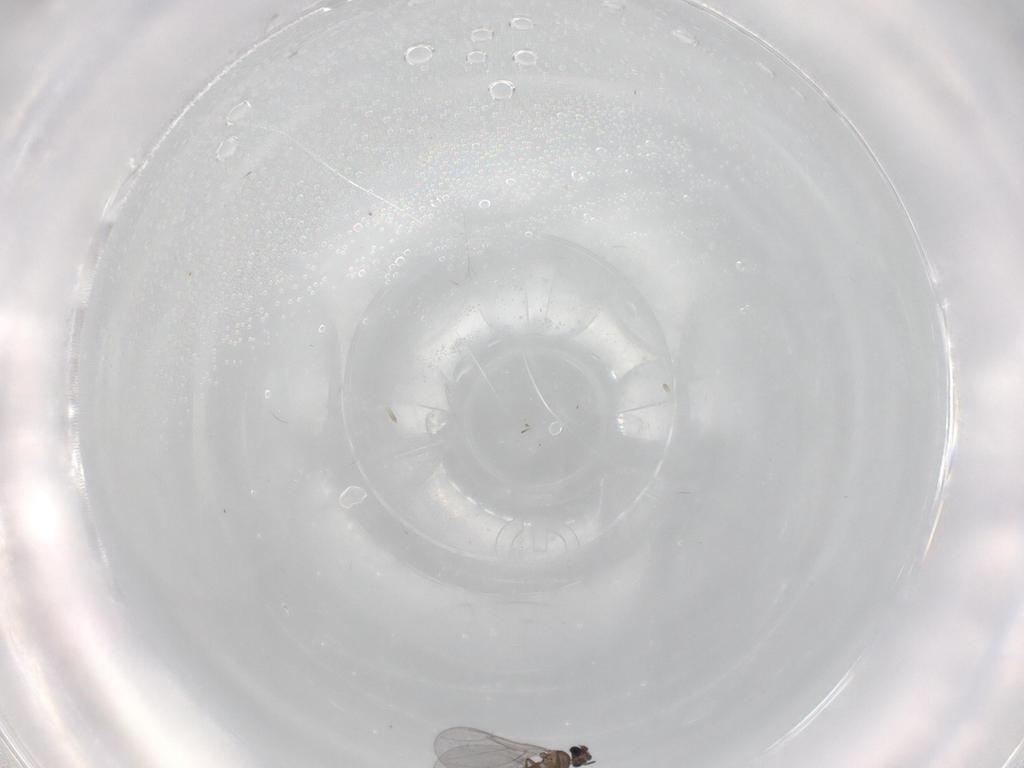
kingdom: Animalia
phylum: Arthropoda
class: Insecta
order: Diptera
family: Phoridae
